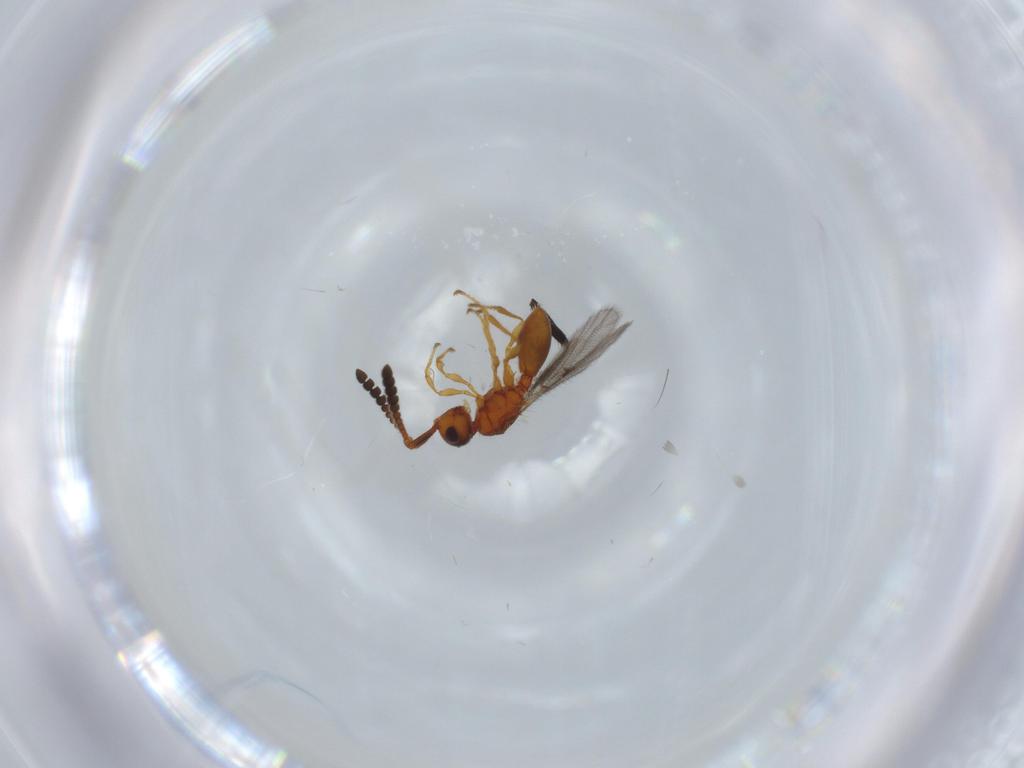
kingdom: Animalia
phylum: Arthropoda
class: Insecta
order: Hymenoptera
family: Diapriidae
